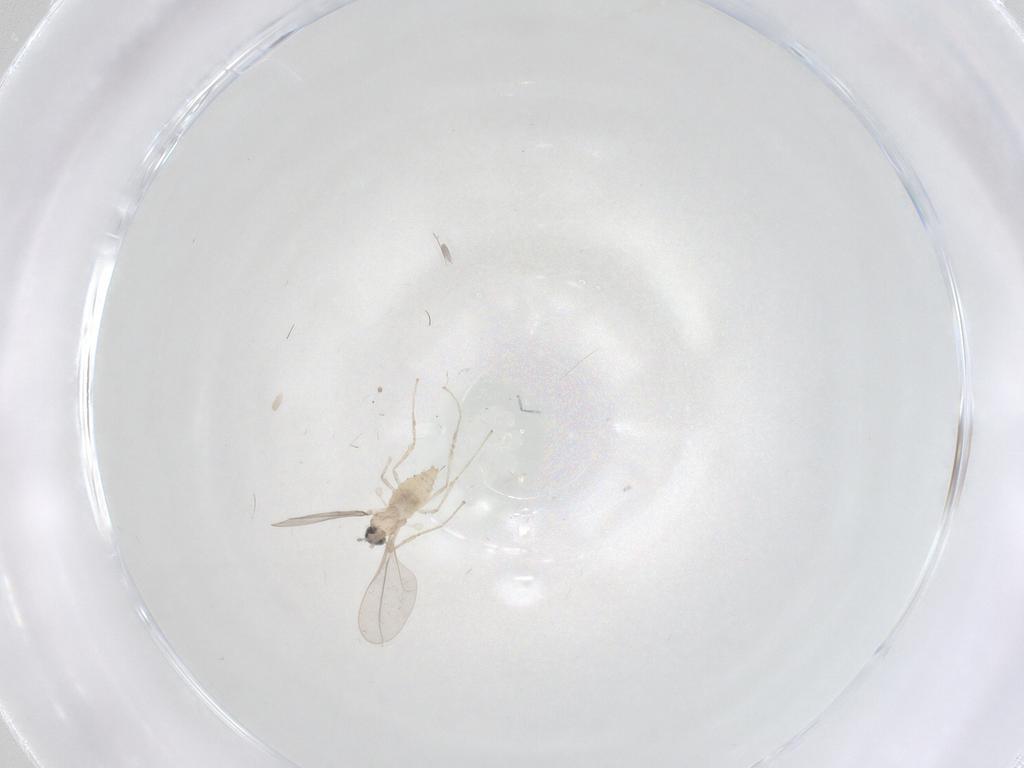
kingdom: Animalia
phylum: Arthropoda
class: Insecta
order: Diptera
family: Cecidomyiidae
